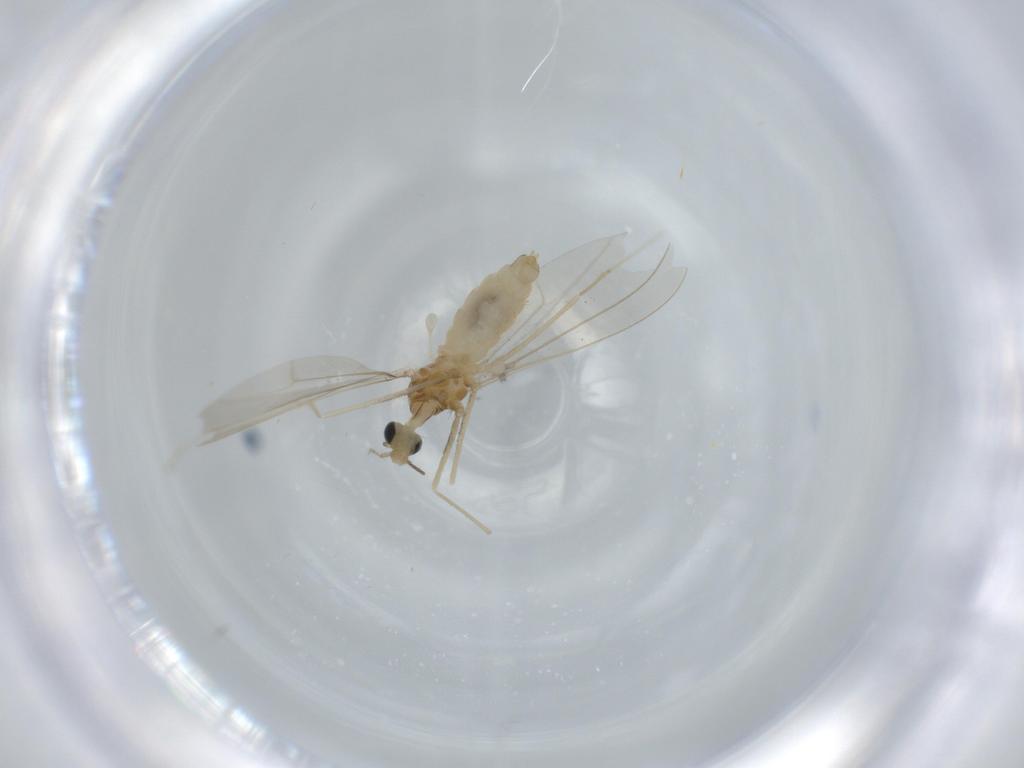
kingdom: Animalia
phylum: Arthropoda
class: Insecta
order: Diptera
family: Cecidomyiidae
